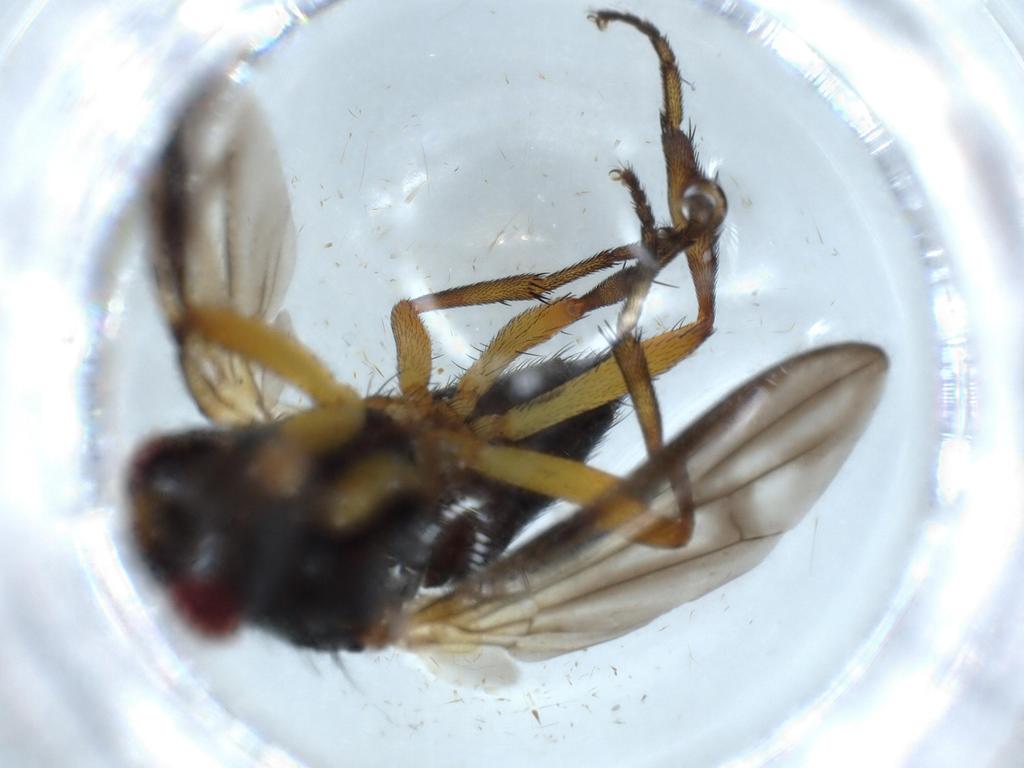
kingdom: Animalia
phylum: Arthropoda
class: Insecta
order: Diptera
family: Calliphoridae
